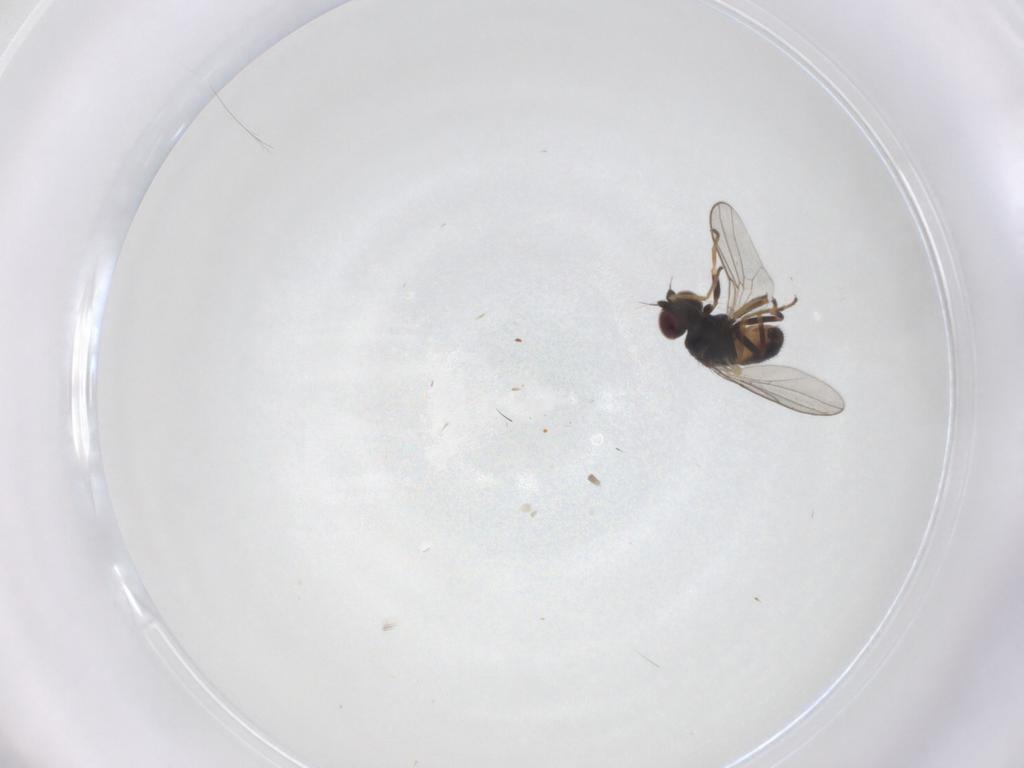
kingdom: Animalia
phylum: Arthropoda
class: Insecta
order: Diptera
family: Chloropidae
